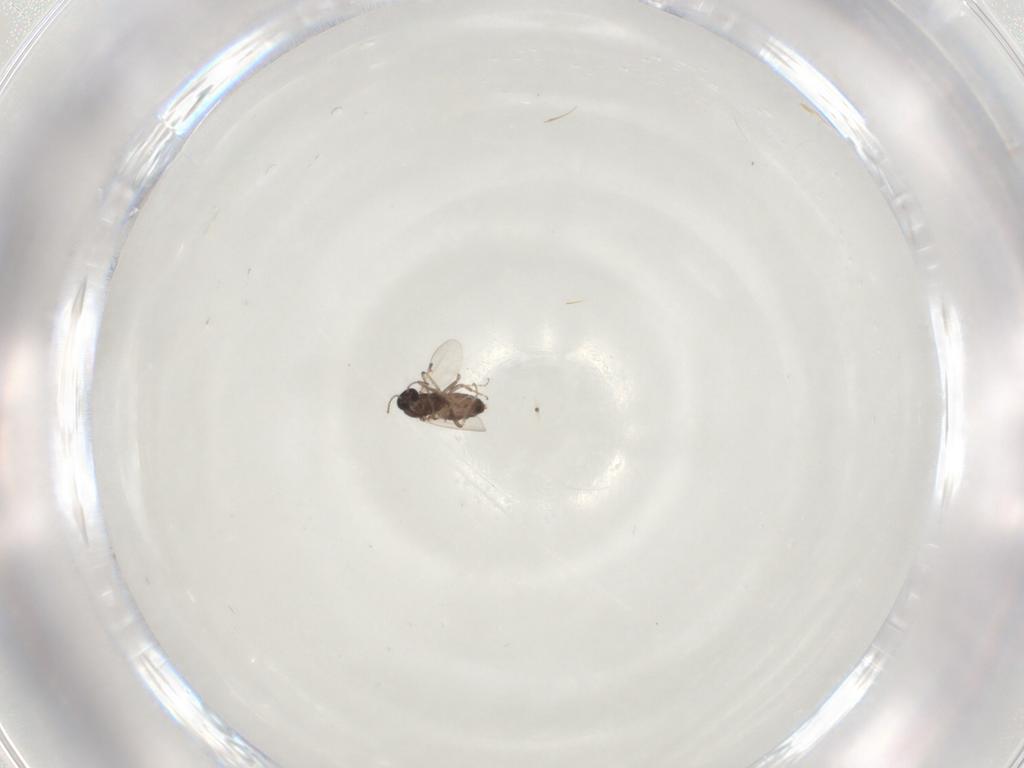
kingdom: Animalia
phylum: Arthropoda
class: Insecta
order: Diptera
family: Ceratopogonidae
